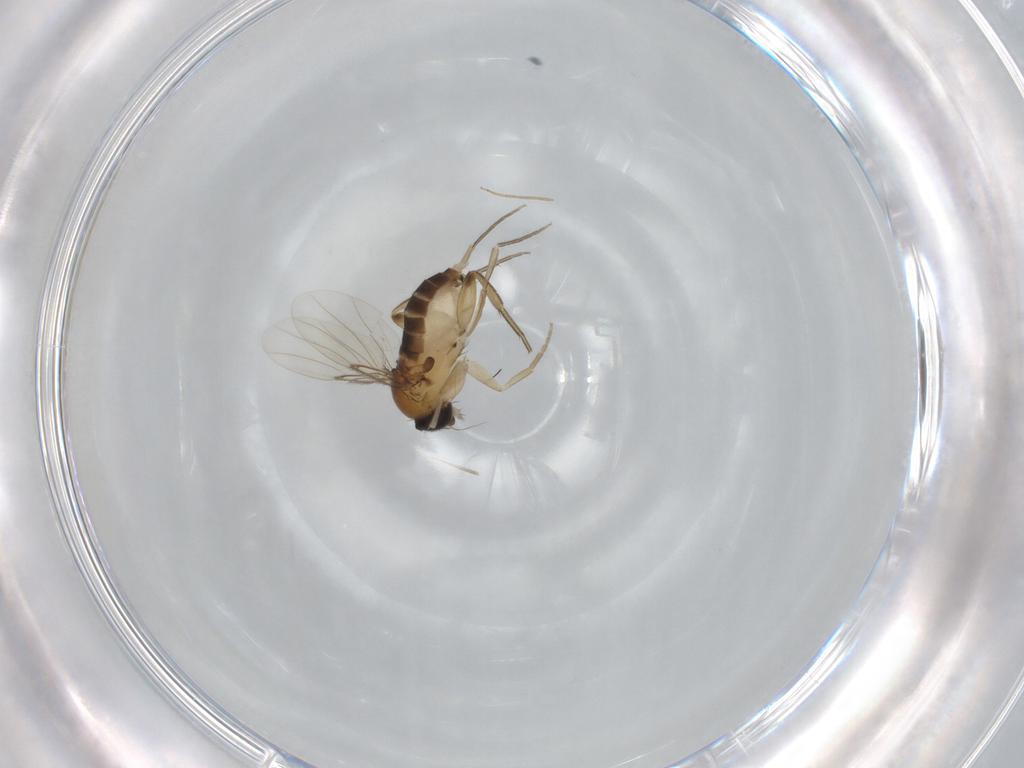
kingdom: Animalia
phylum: Arthropoda
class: Insecta
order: Diptera
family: Phoridae
